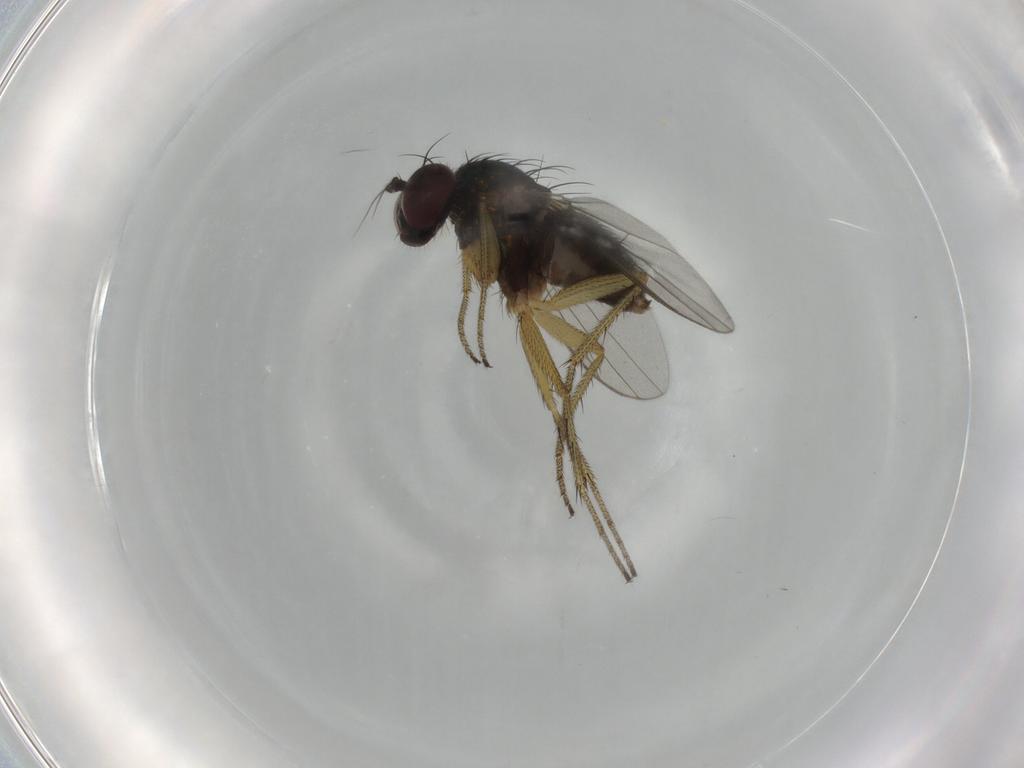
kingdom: Animalia
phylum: Arthropoda
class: Insecta
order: Diptera
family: Dolichopodidae
